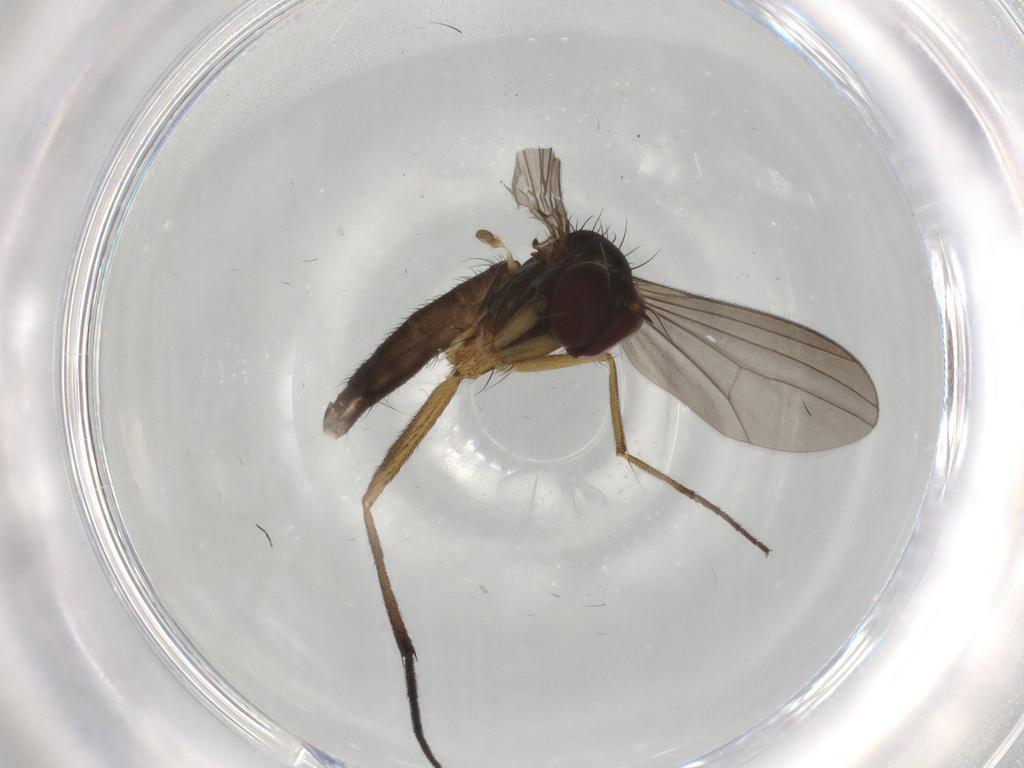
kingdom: Animalia
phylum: Arthropoda
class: Insecta
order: Diptera
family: Dolichopodidae
